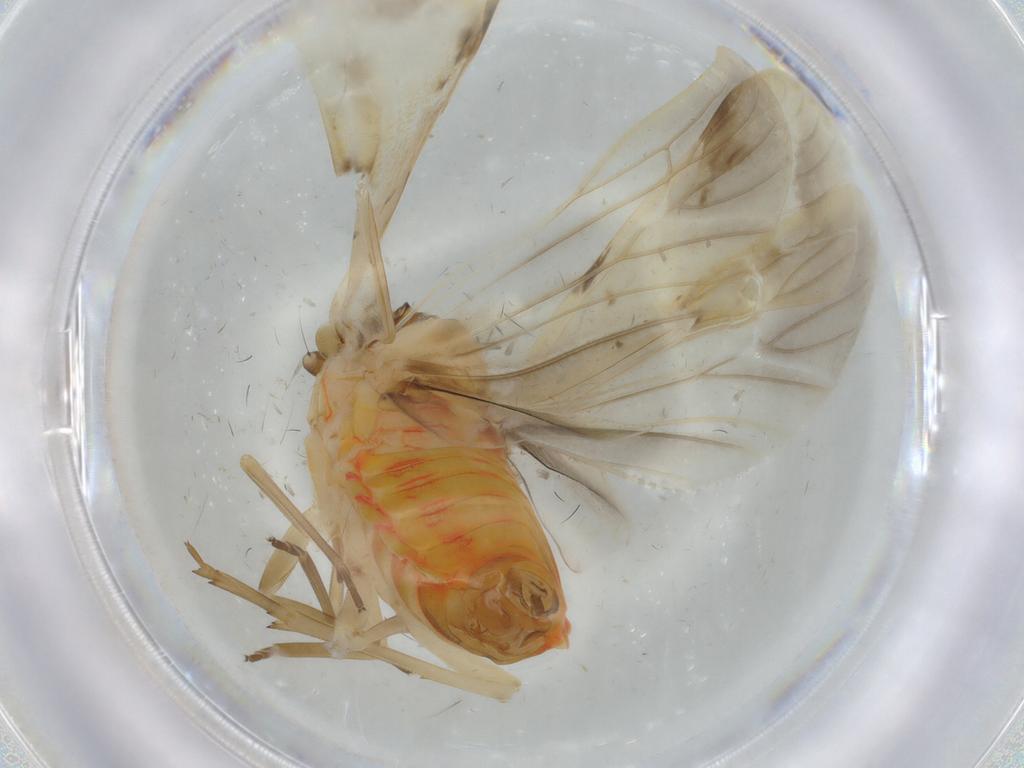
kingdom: Animalia
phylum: Arthropoda
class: Insecta
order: Hemiptera
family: Achilidae
